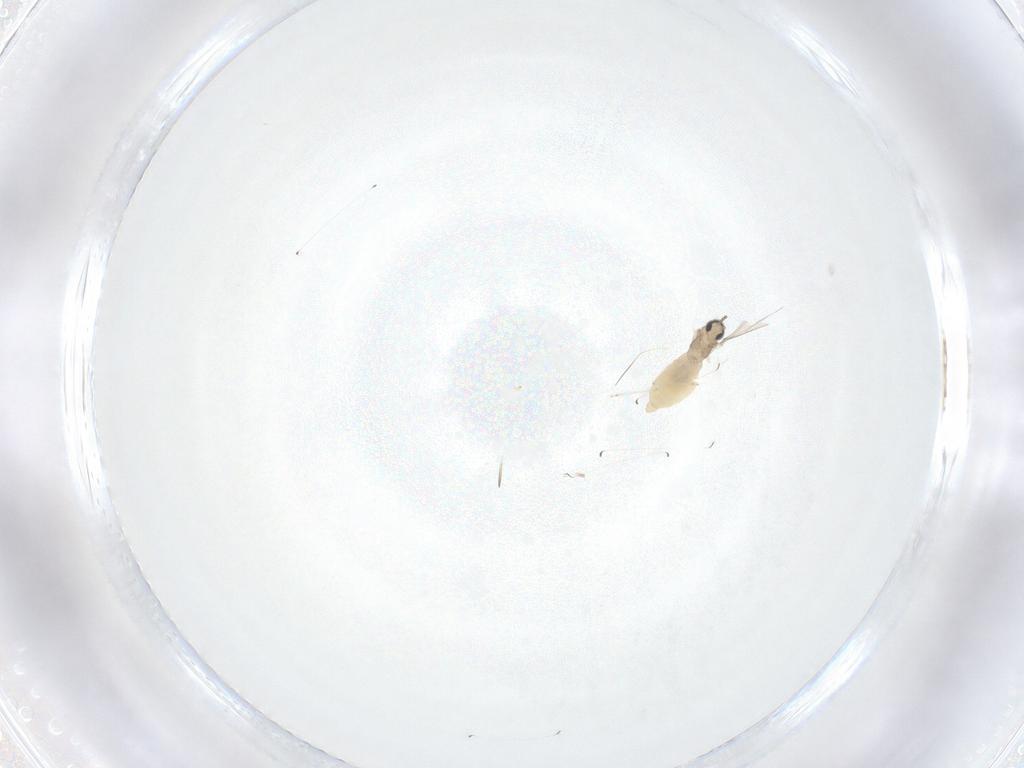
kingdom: Animalia
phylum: Arthropoda
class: Insecta
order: Diptera
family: Cecidomyiidae
